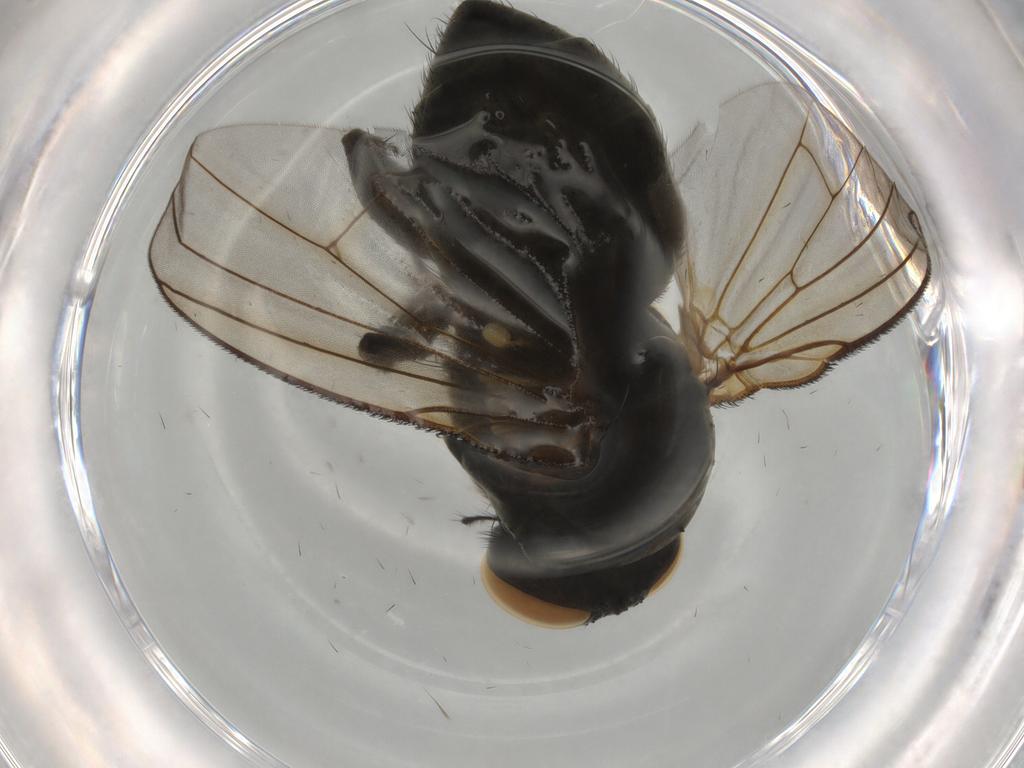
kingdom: Animalia
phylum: Arthropoda
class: Insecta
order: Diptera
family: Muscidae
